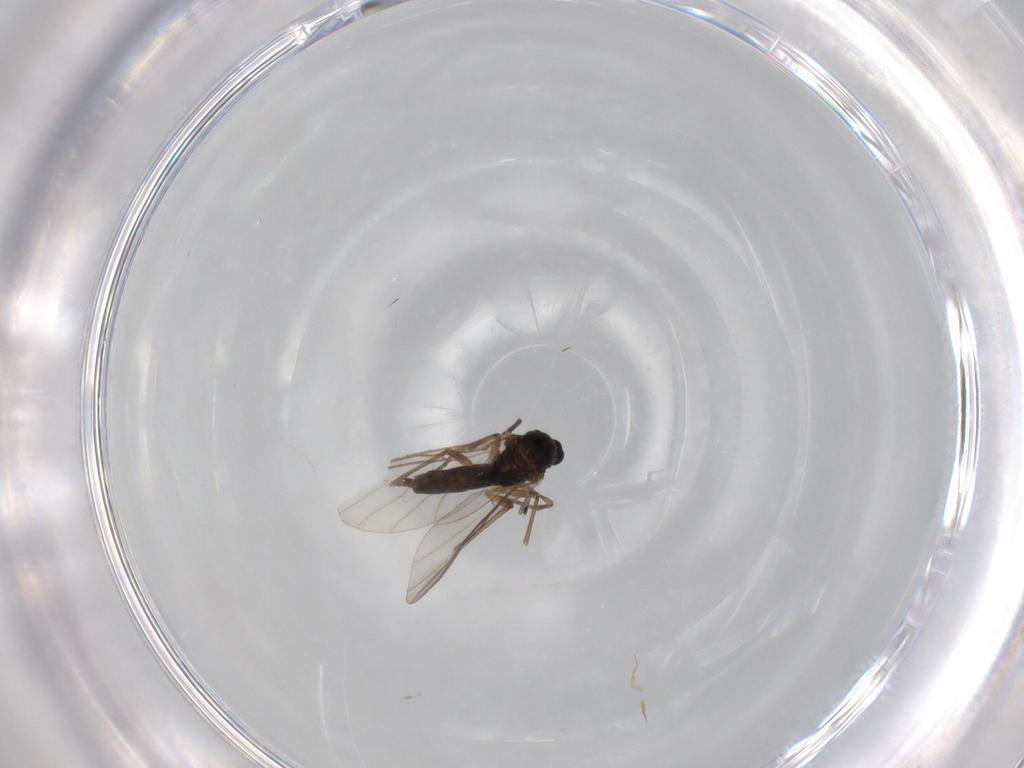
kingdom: Animalia
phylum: Arthropoda
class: Insecta
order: Diptera
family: Sciaridae
